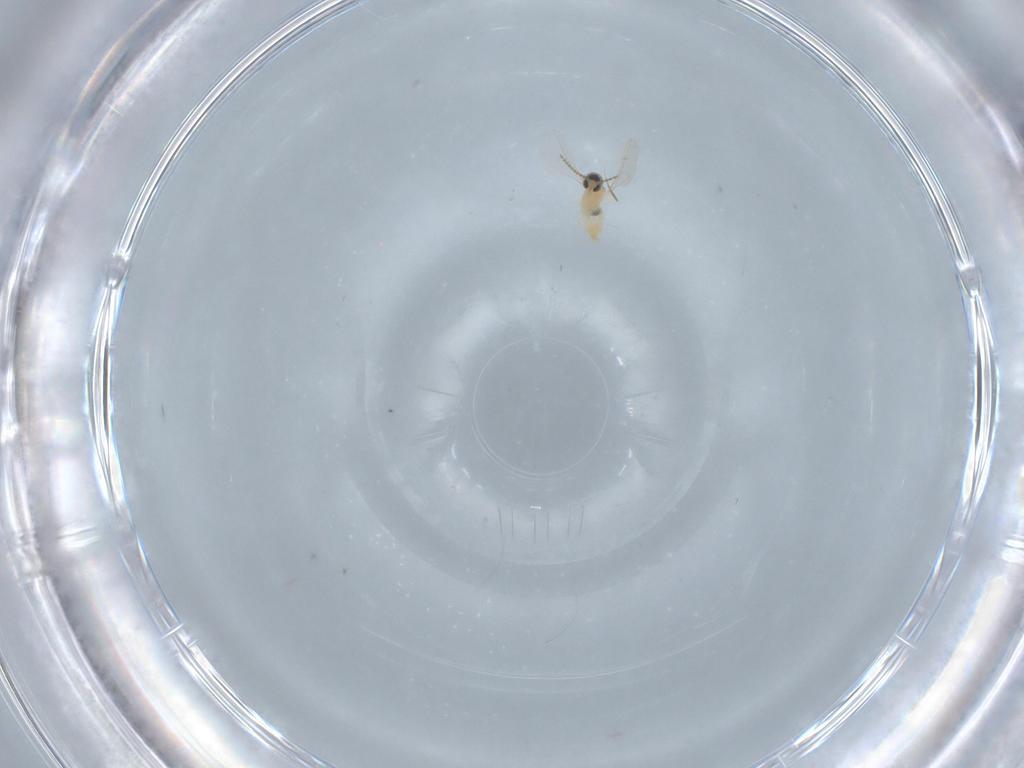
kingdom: Animalia
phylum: Arthropoda
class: Insecta
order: Diptera
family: Cecidomyiidae
